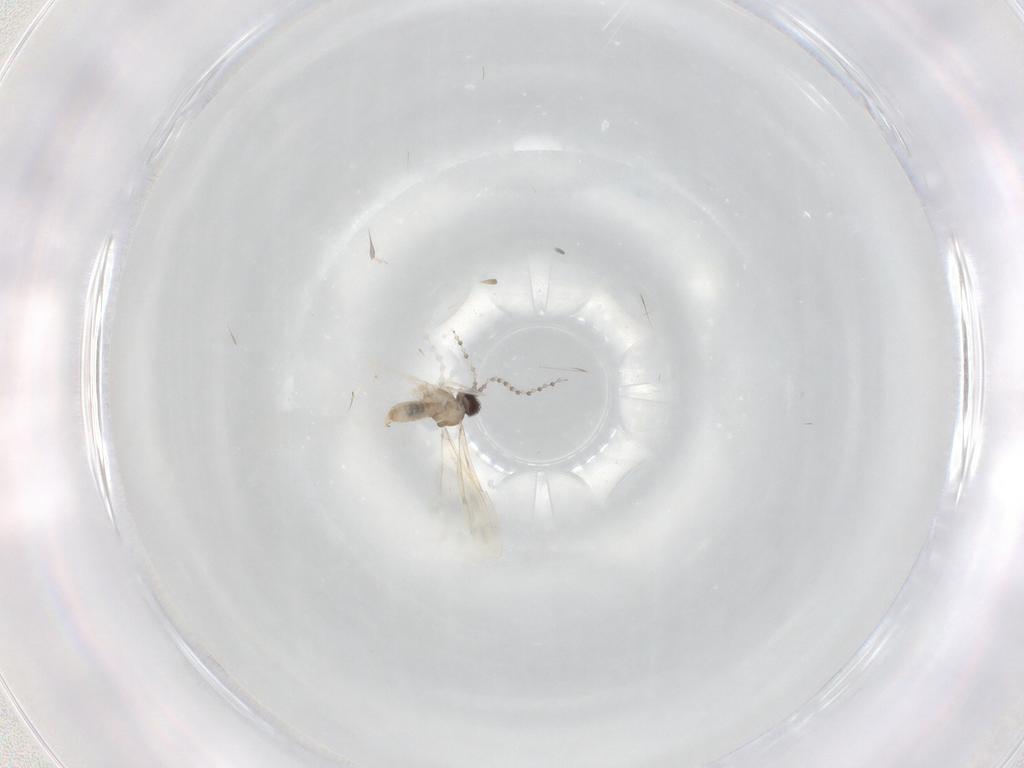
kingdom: Animalia
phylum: Arthropoda
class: Insecta
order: Diptera
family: Cecidomyiidae
